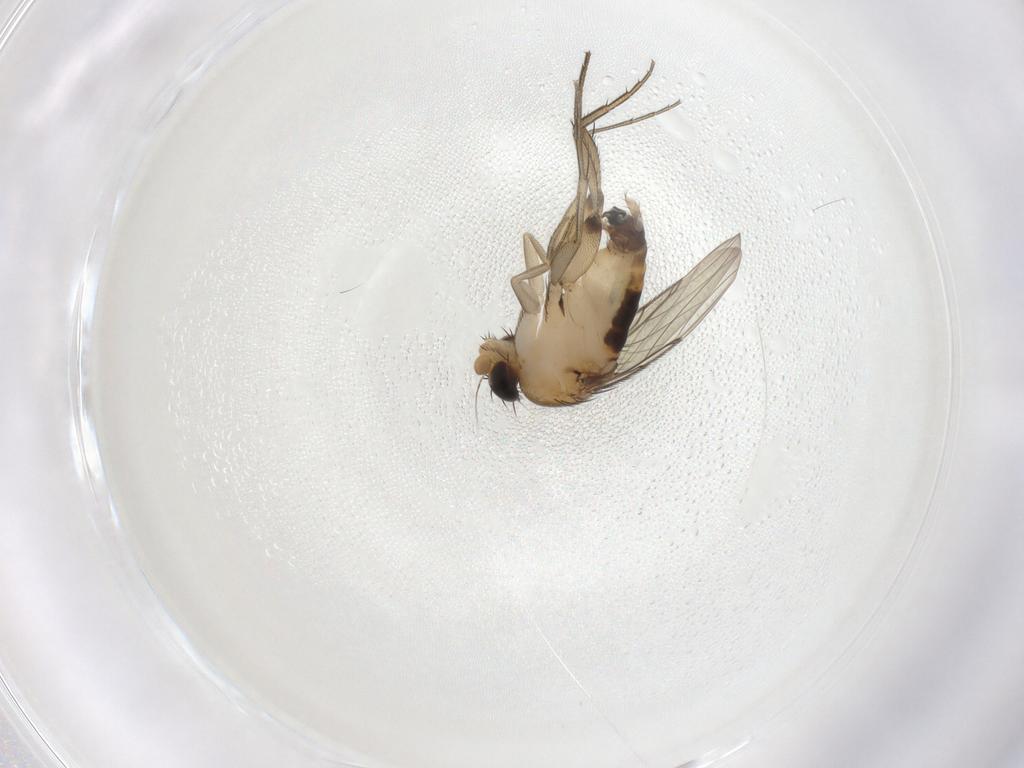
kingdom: Animalia
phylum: Arthropoda
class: Insecta
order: Diptera
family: Phoridae
